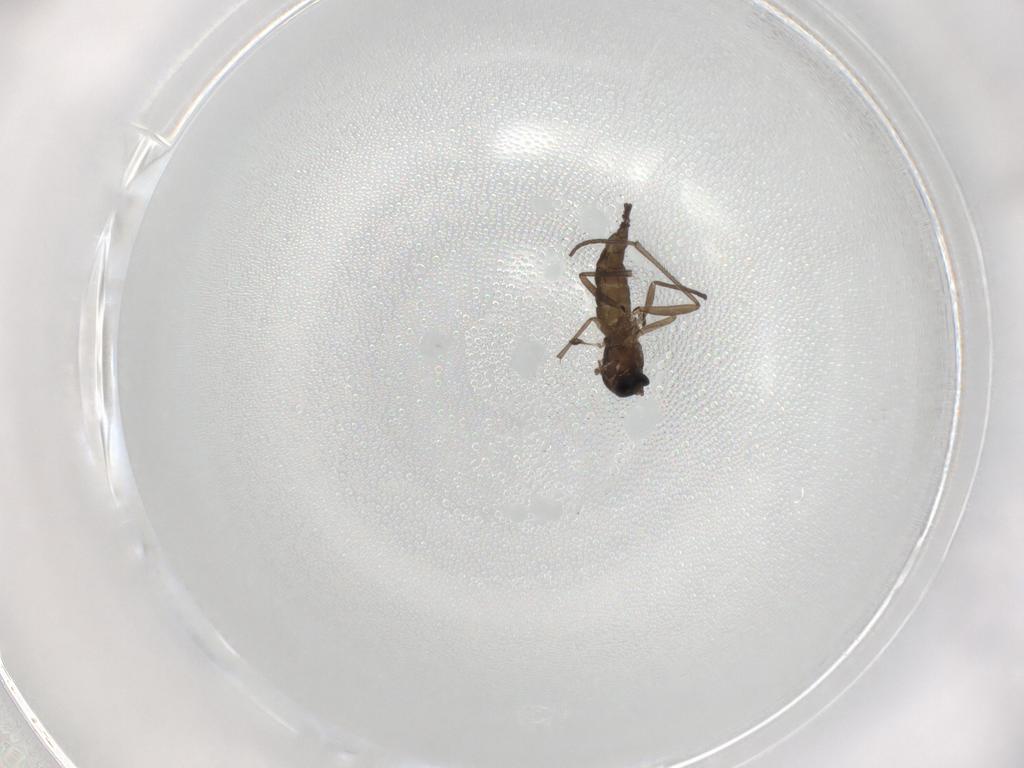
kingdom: Animalia
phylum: Arthropoda
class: Insecta
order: Diptera
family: Sciaridae
